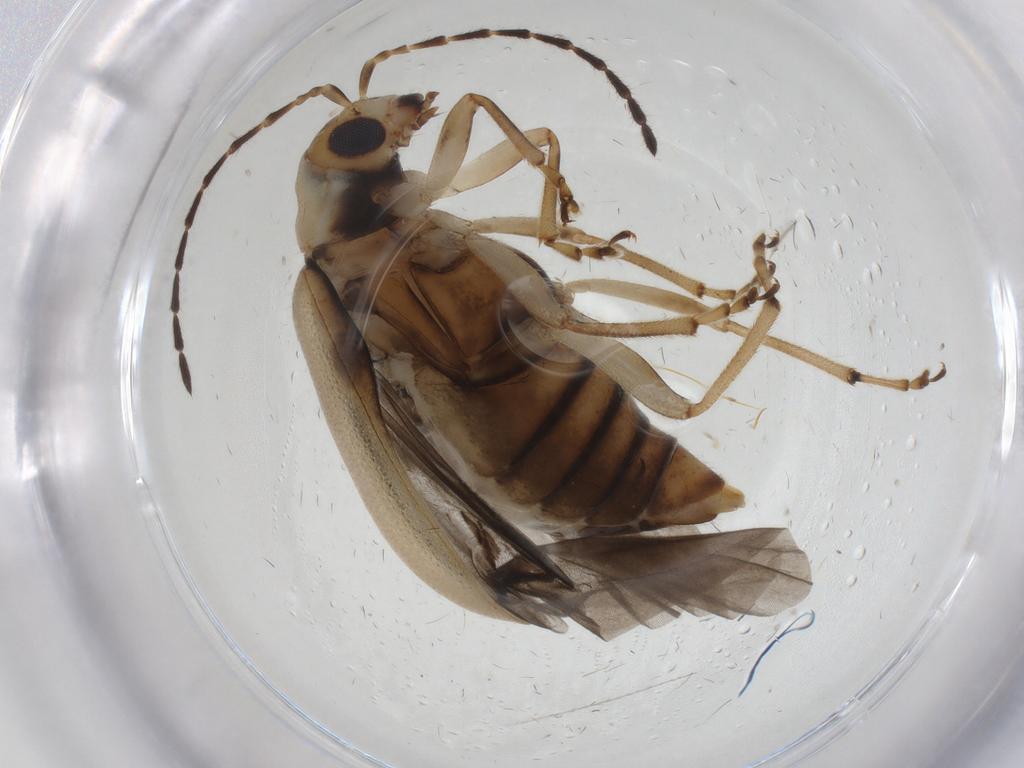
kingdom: Animalia
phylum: Arthropoda
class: Insecta
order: Coleoptera
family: Chrysomelidae
